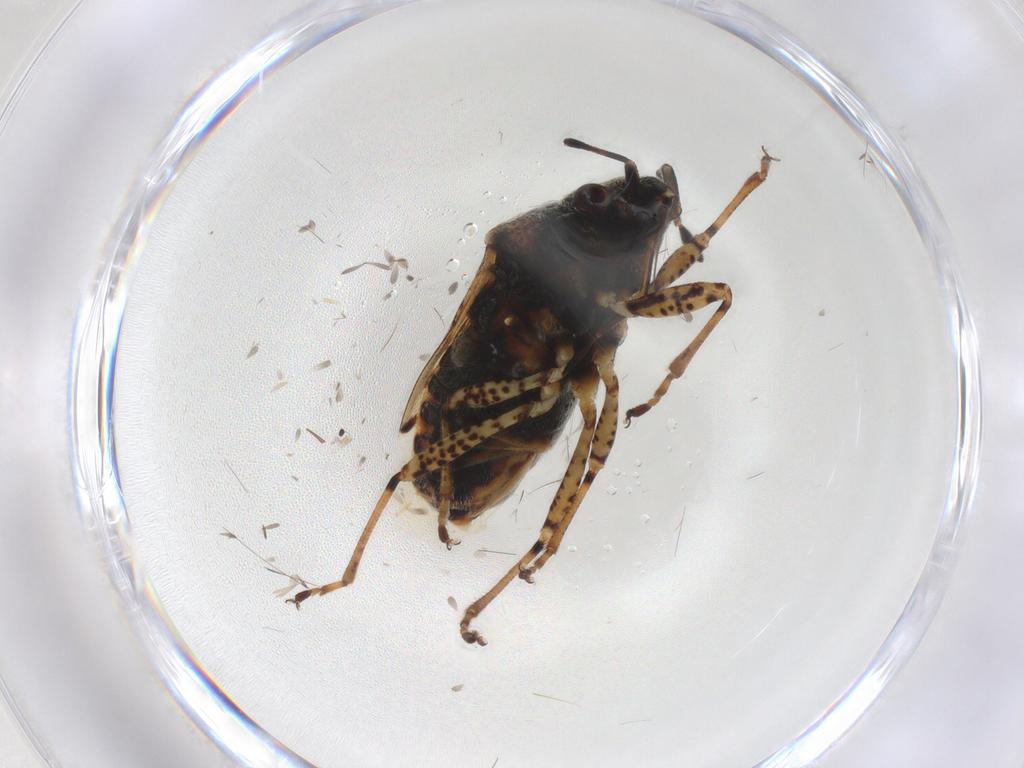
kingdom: Animalia
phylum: Arthropoda
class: Insecta
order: Hemiptera
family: Lygaeidae
